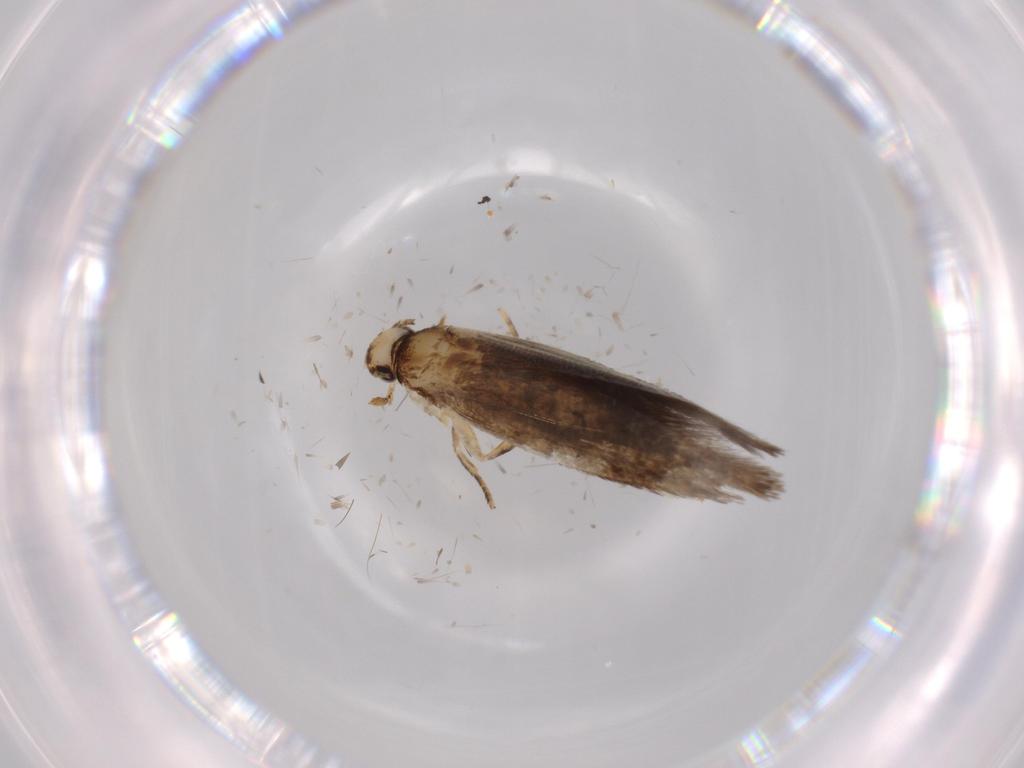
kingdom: Animalia
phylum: Arthropoda
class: Insecta
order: Lepidoptera
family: Tineidae
